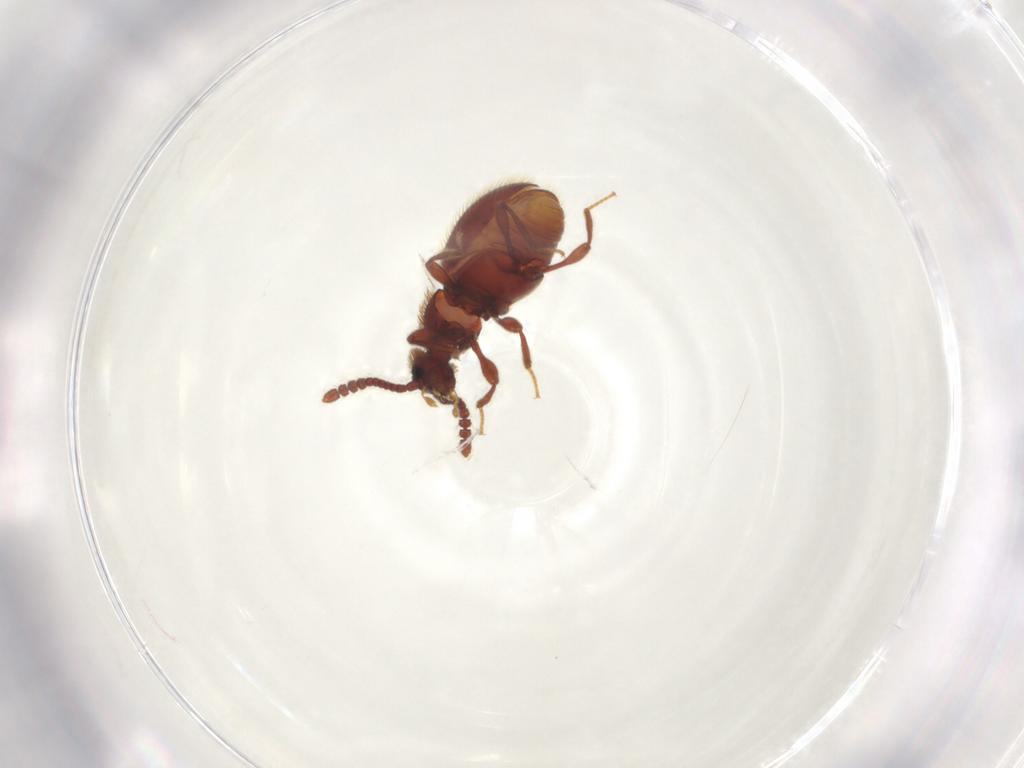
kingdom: Animalia
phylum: Arthropoda
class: Insecta
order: Coleoptera
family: Staphylinidae
